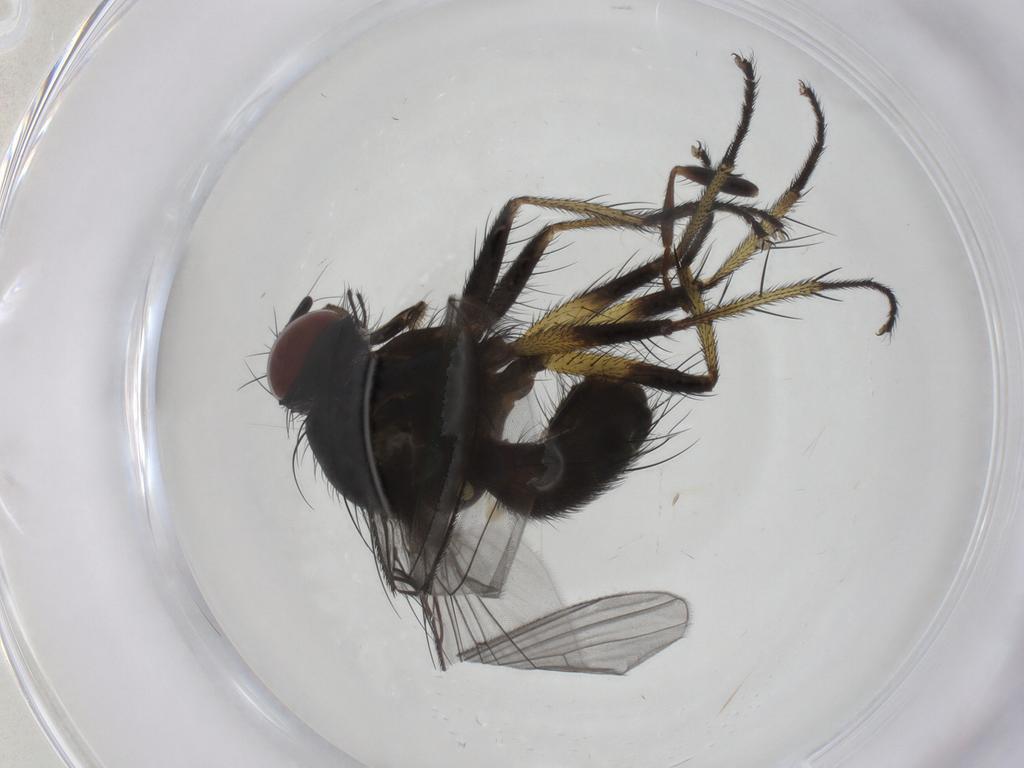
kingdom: Animalia
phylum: Arthropoda
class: Insecta
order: Diptera
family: Muscidae
